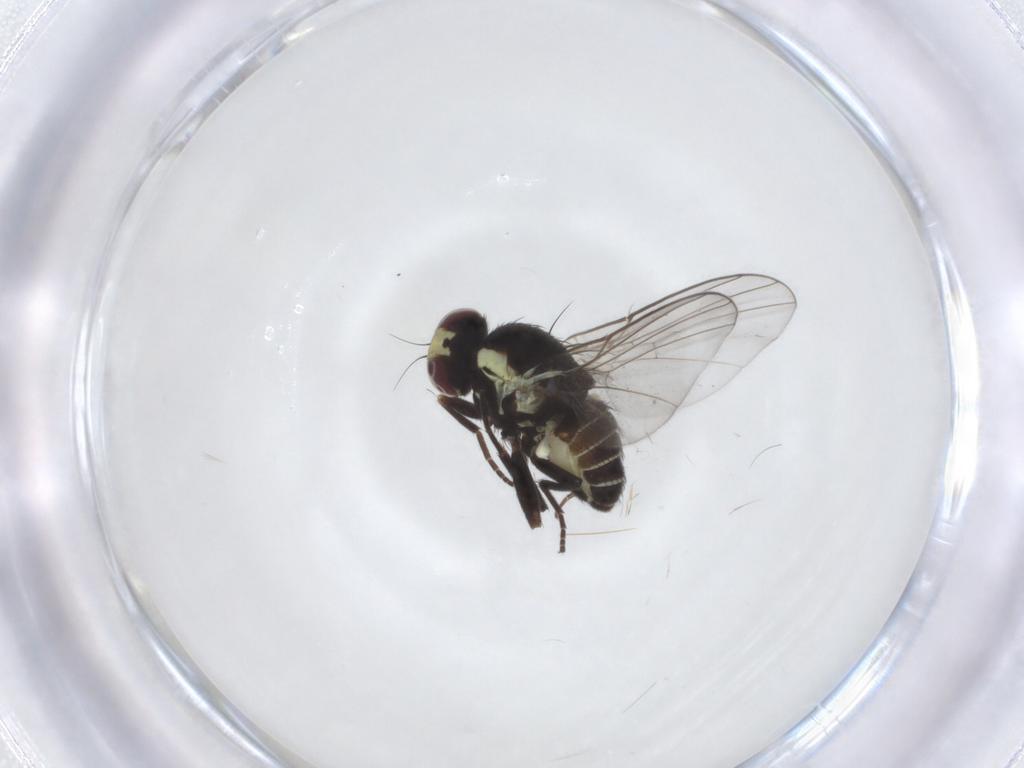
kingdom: Animalia
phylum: Arthropoda
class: Insecta
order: Diptera
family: Agromyzidae
